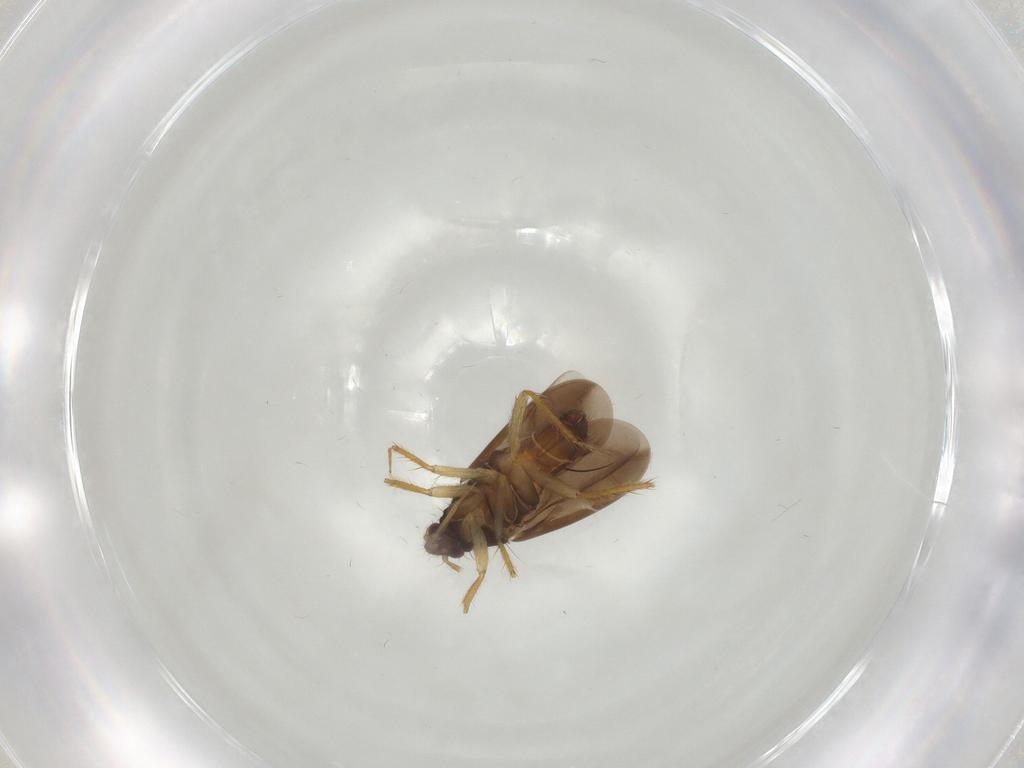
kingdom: Animalia
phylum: Arthropoda
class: Insecta
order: Hemiptera
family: Ceratocombidae
